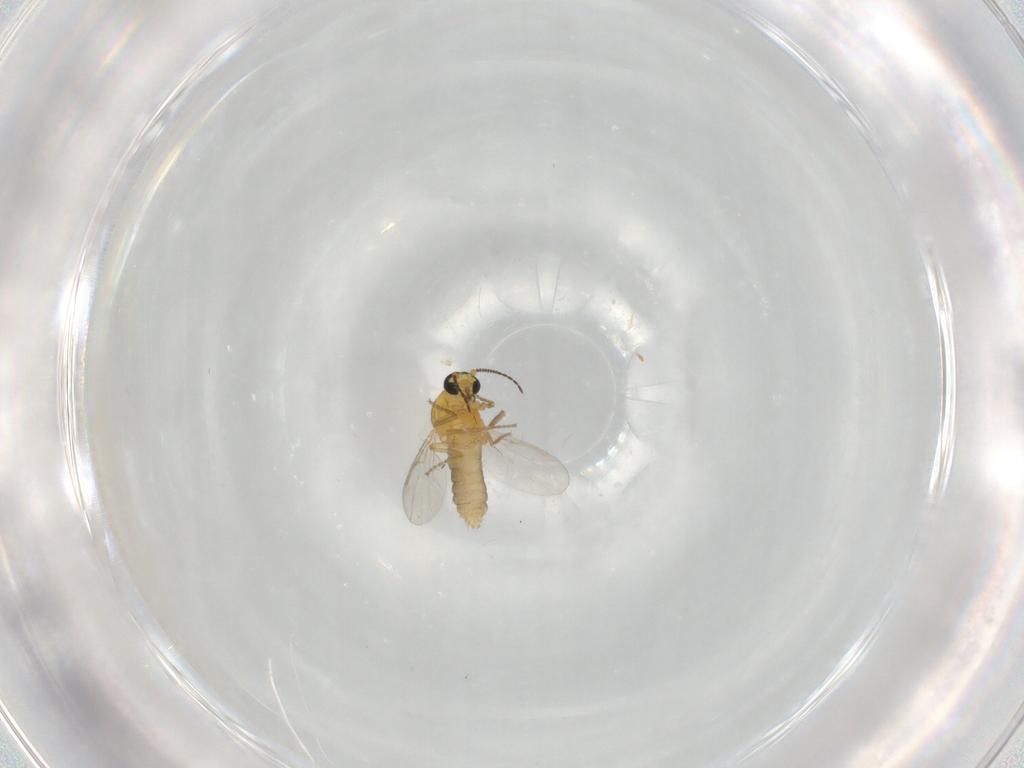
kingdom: Animalia
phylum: Arthropoda
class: Insecta
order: Diptera
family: Ceratopogonidae
